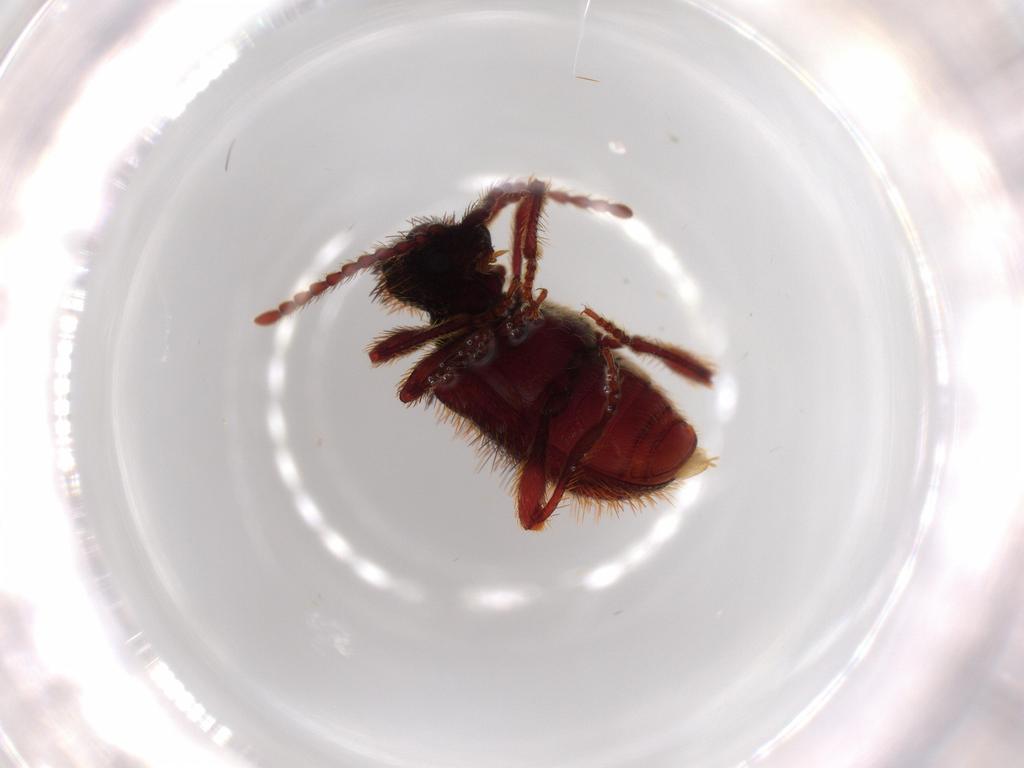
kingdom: Animalia
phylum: Arthropoda
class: Insecta
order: Coleoptera
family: Ptinidae
